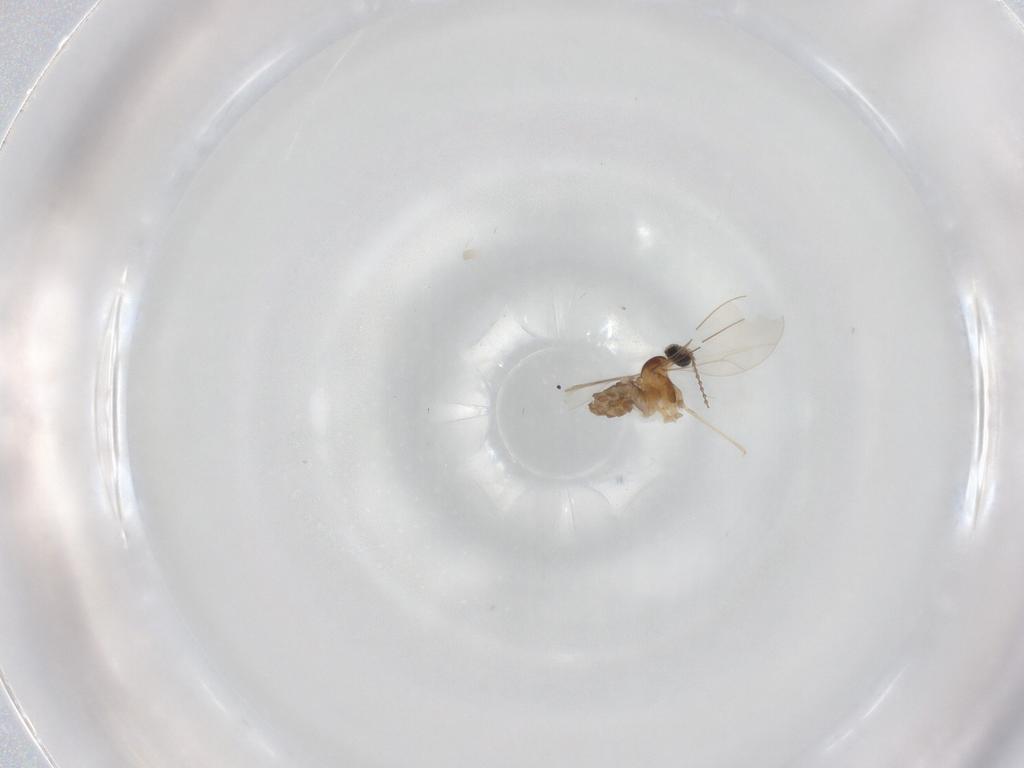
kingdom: Animalia
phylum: Arthropoda
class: Insecta
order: Diptera
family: Cecidomyiidae
